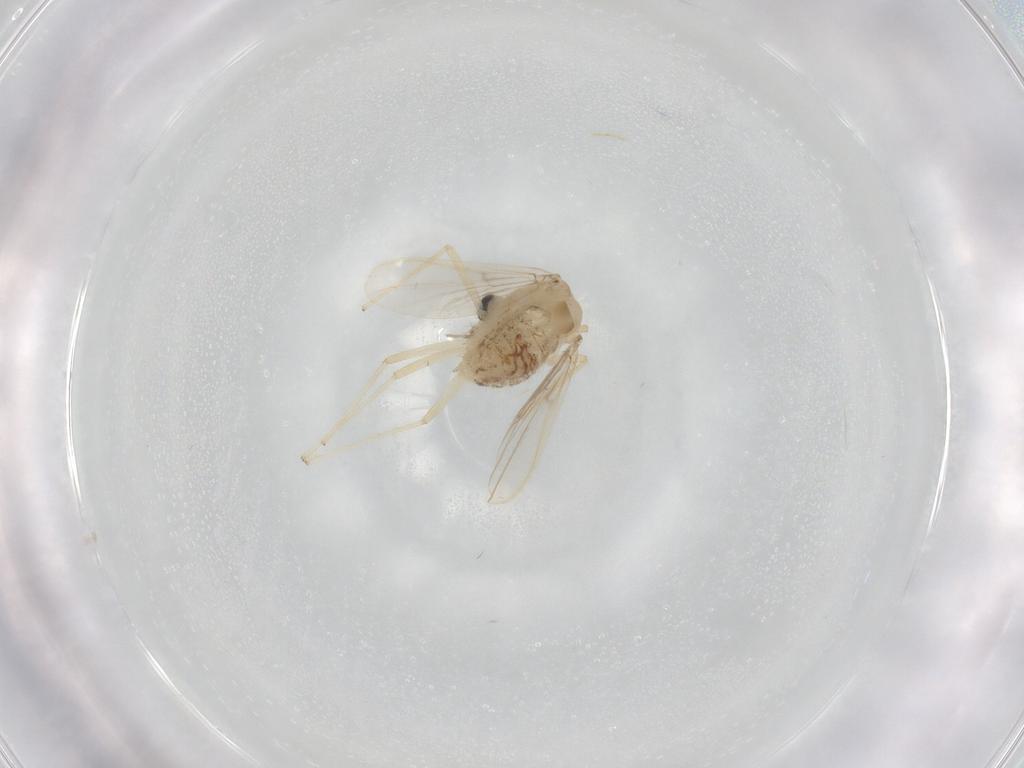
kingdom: Animalia
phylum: Arthropoda
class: Insecta
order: Diptera
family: Chironomidae
